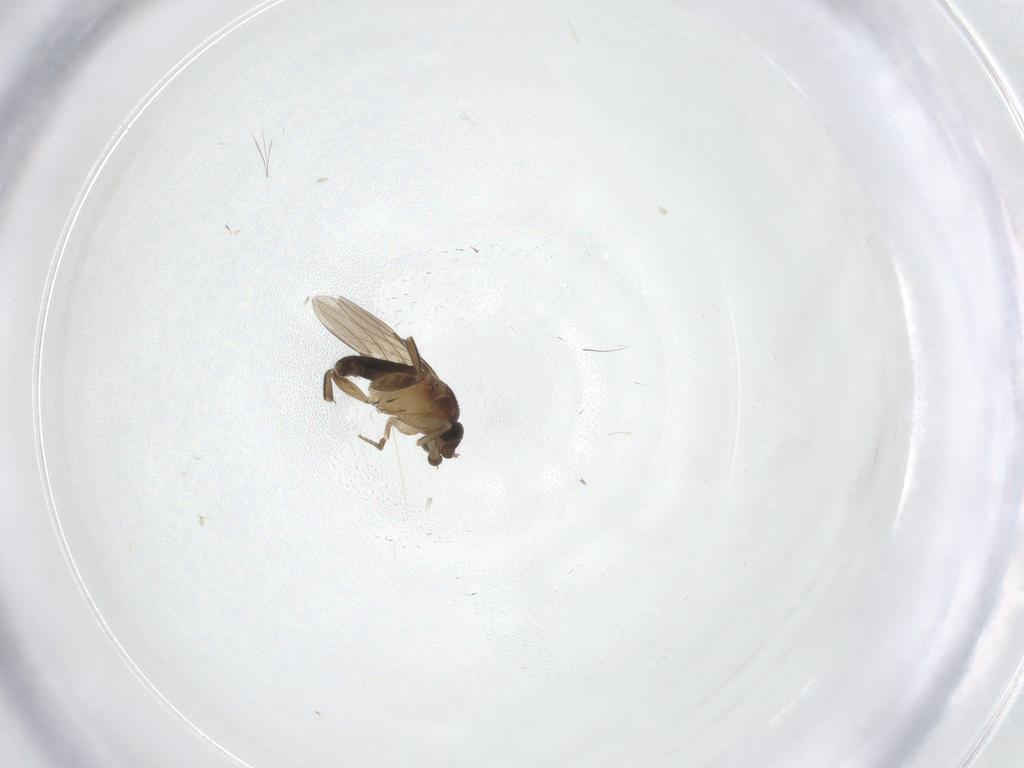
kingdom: Animalia
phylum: Arthropoda
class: Insecta
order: Diptera
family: Phoridae
